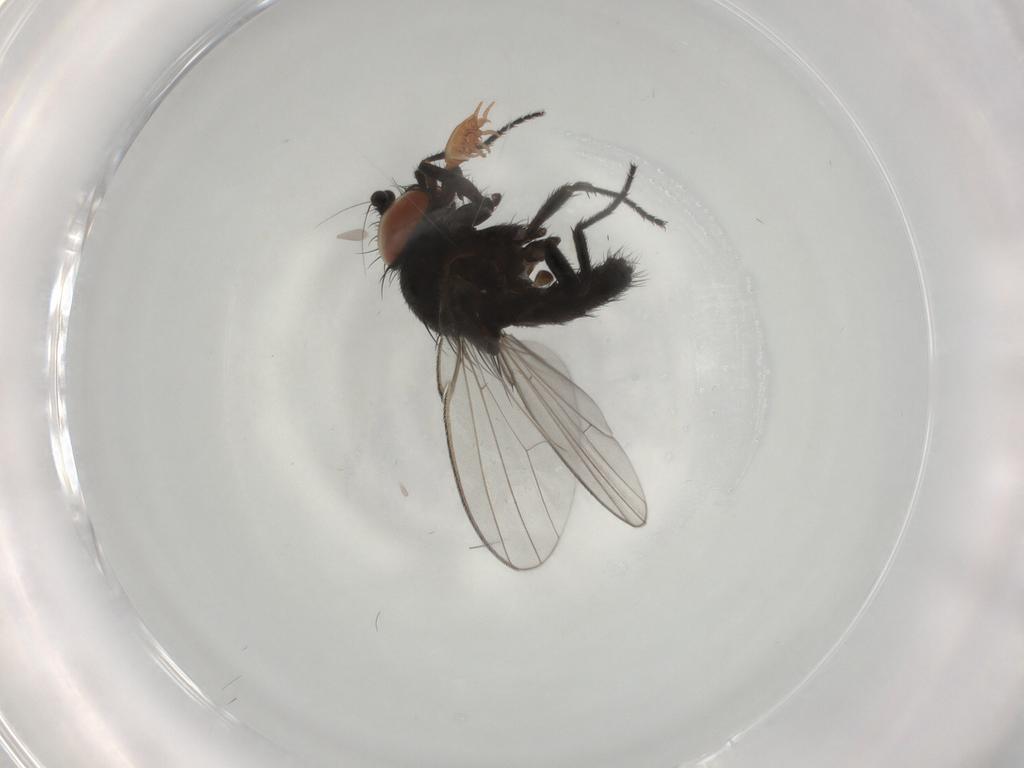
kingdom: Animalia
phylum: Arthropoda
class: Insecta
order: Diptera
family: Milichiidae
